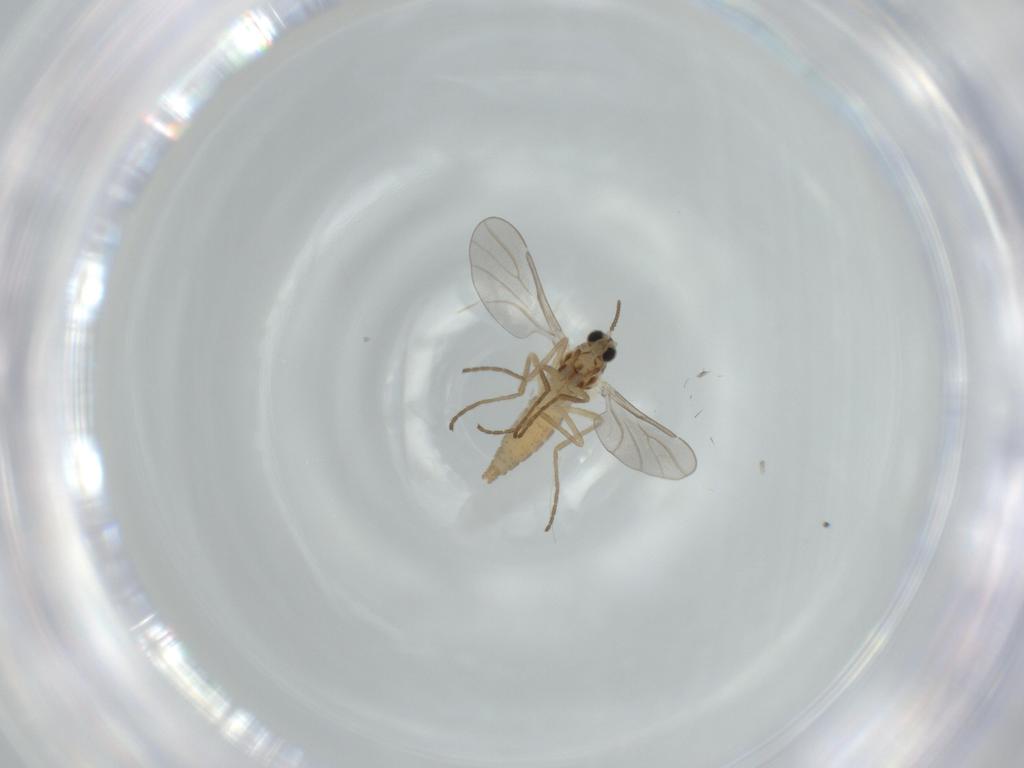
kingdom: Animalia
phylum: Arthropoda
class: Insecta
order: Diptera
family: Cecidomyiidae
